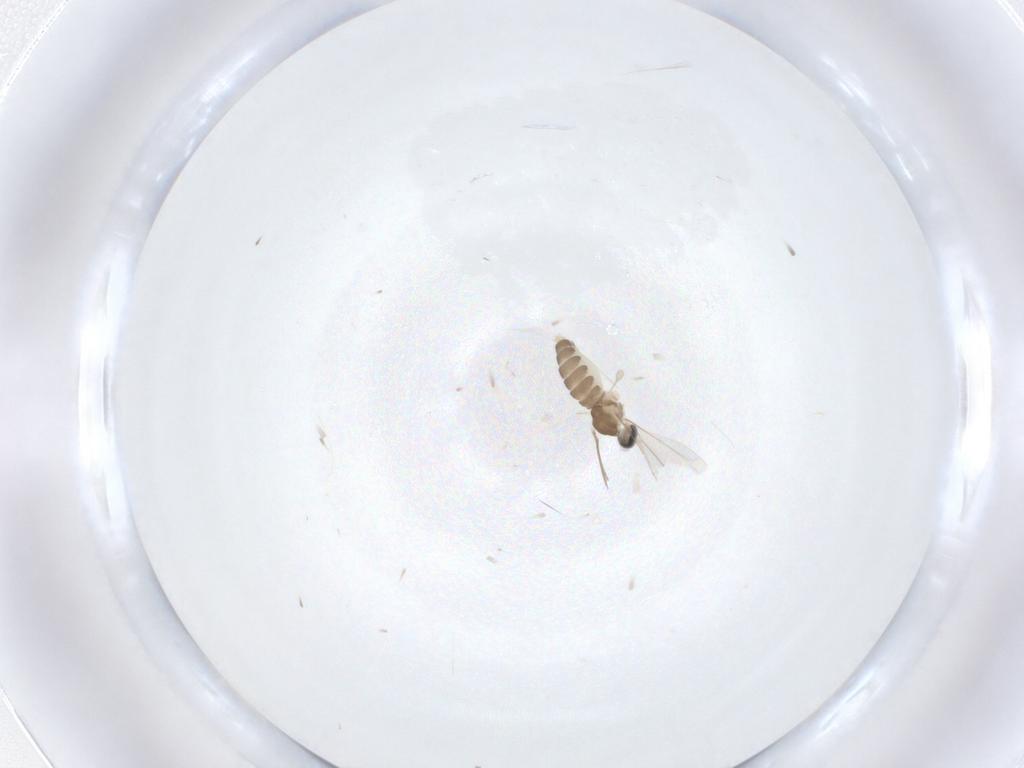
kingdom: Animalia
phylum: Arthropoda
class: Insecta
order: Diptera
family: Cecidomyiidae
